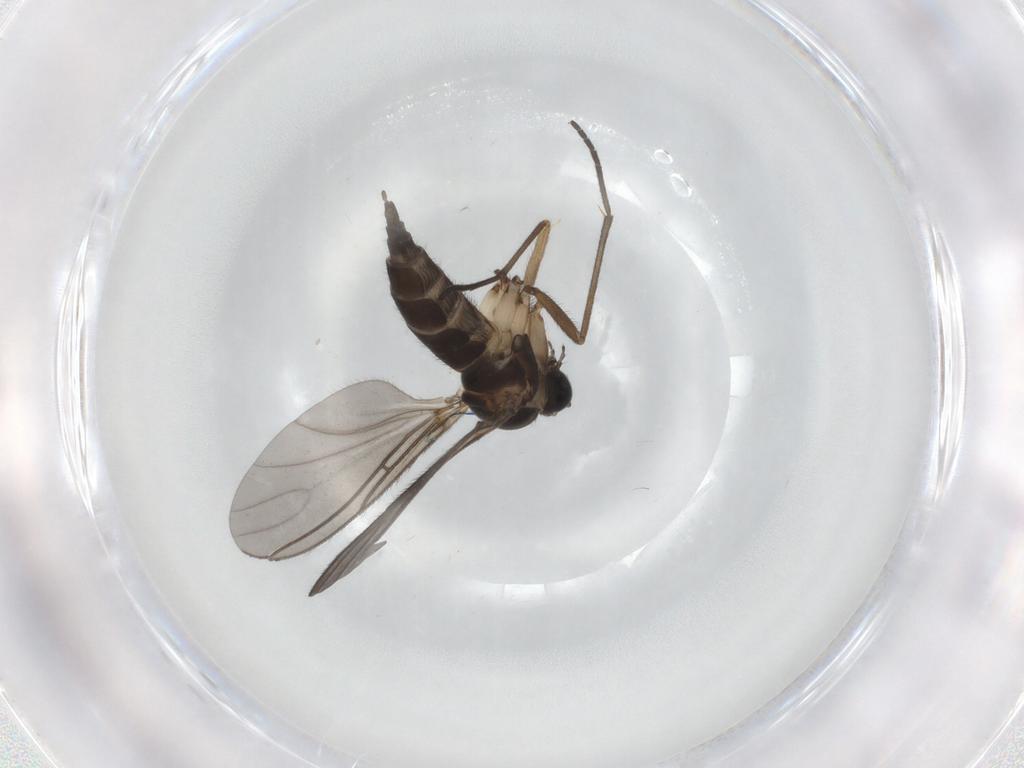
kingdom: Animalia
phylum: Arthropoda
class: Insecta
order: Diptera
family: Sciaridae
